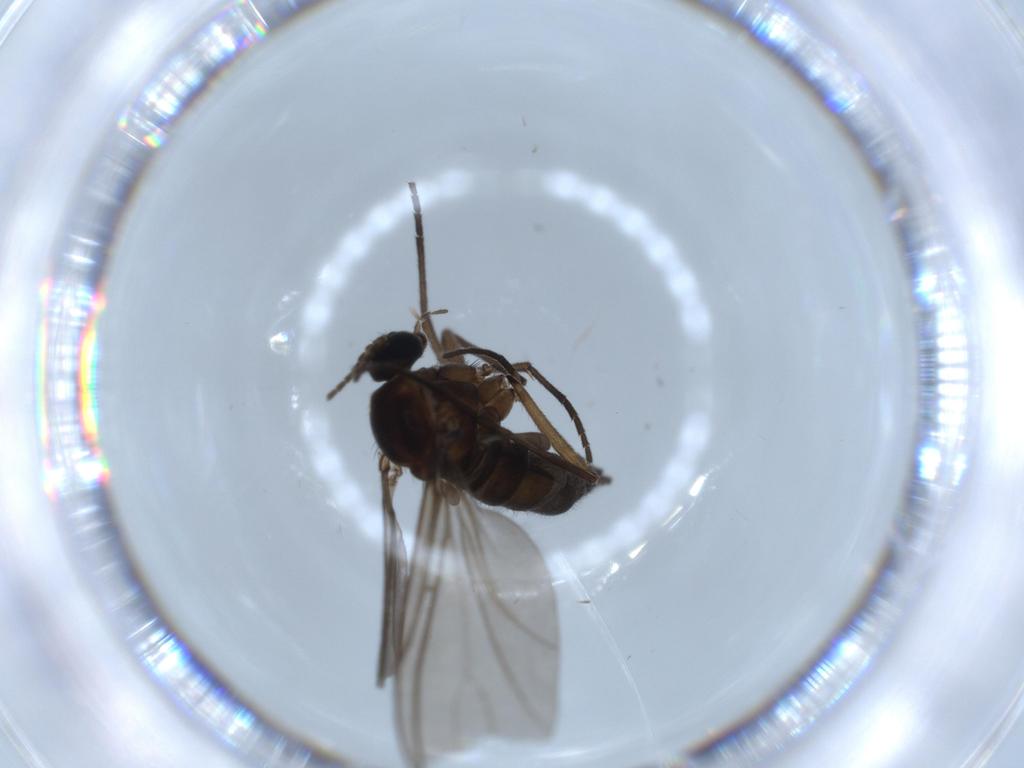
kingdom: Animalia
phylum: Arthropoda
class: Insecta
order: Diptera
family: Sciaridae
